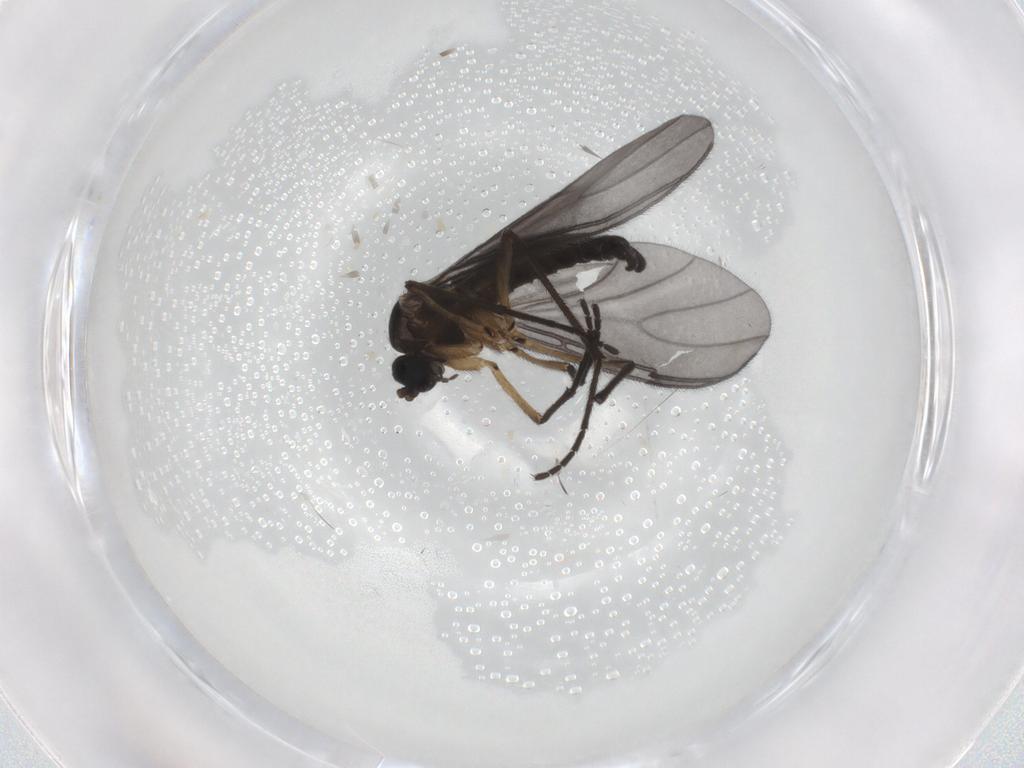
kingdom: Animalia
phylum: Arthropoda
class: Insecta
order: Diptera
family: Sciaridae
